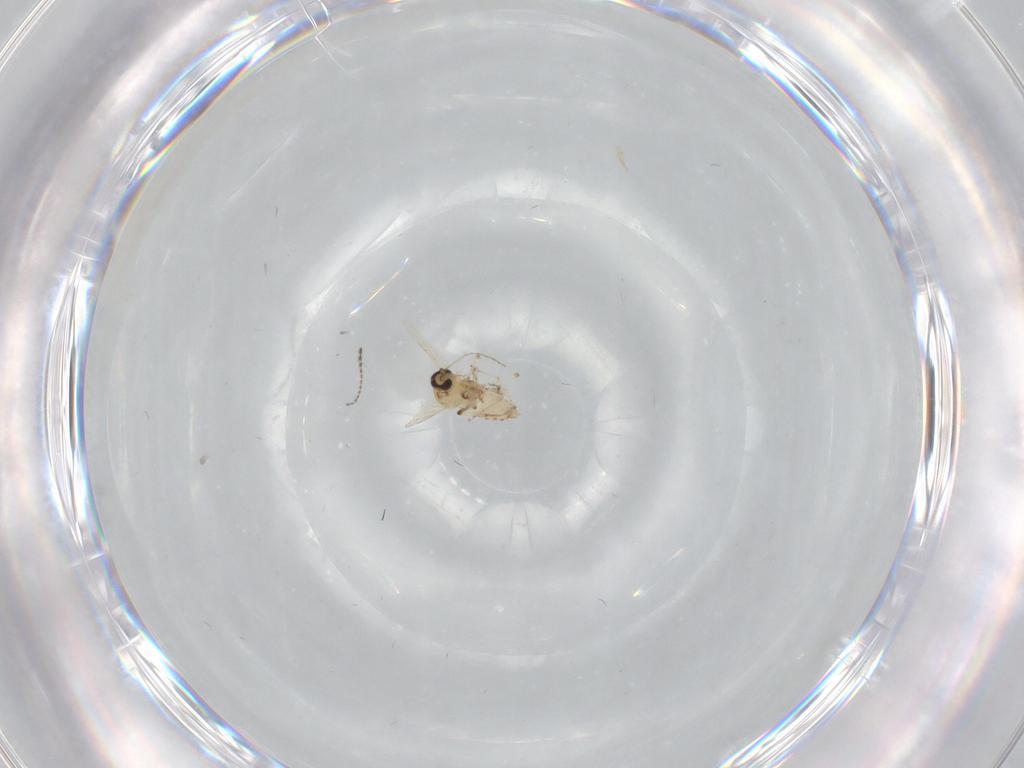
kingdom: Animalia
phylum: Arthropoda
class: Insecta
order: Diptera
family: Ceratopogonidae
